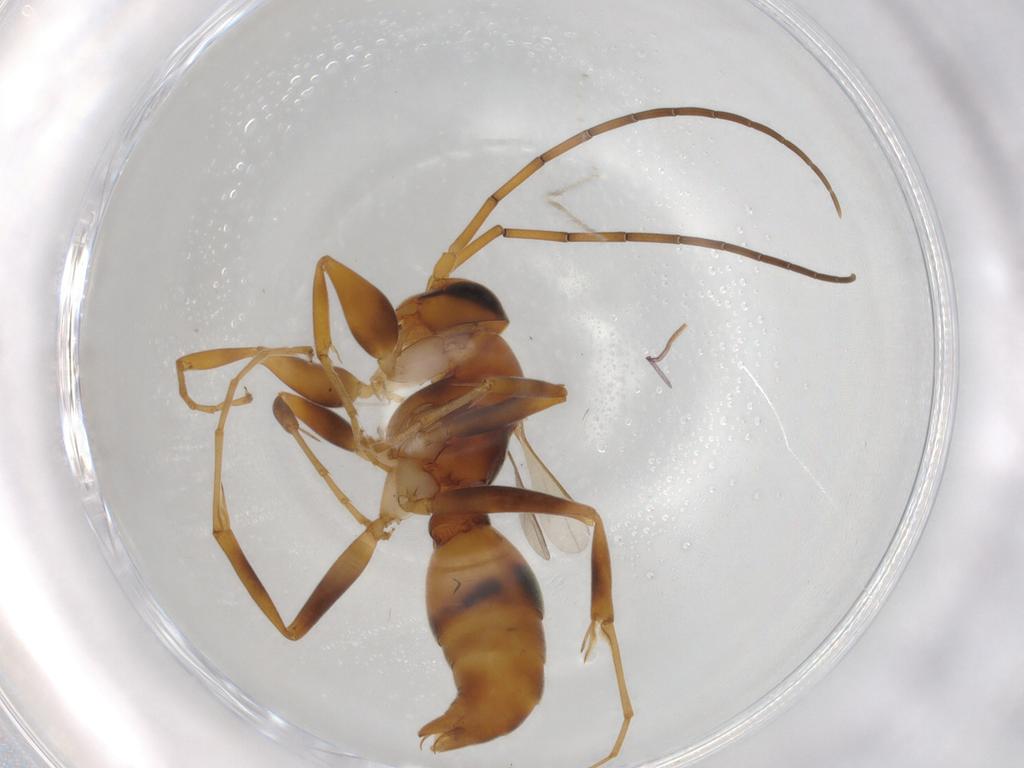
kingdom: Animalia
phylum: Arthropoda
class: Insecta
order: Hymenoptera
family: Rhopalosomatidae
